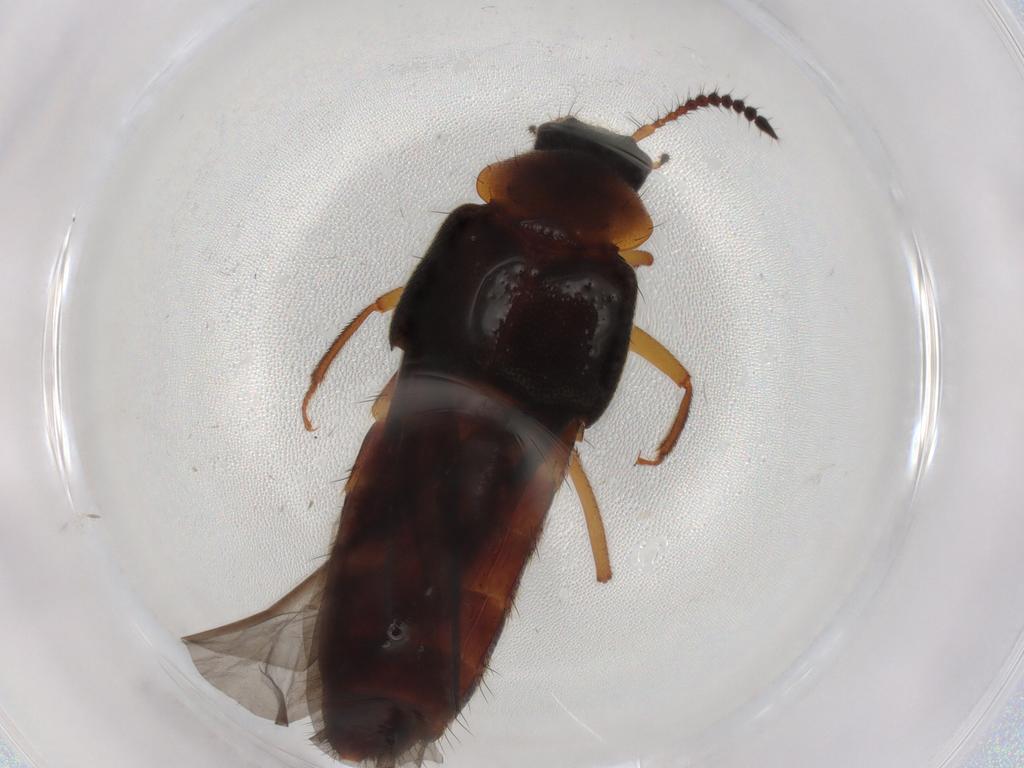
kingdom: Animalia
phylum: Arthropoda
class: Insecta
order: Coleoptera
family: Staphylinidae
